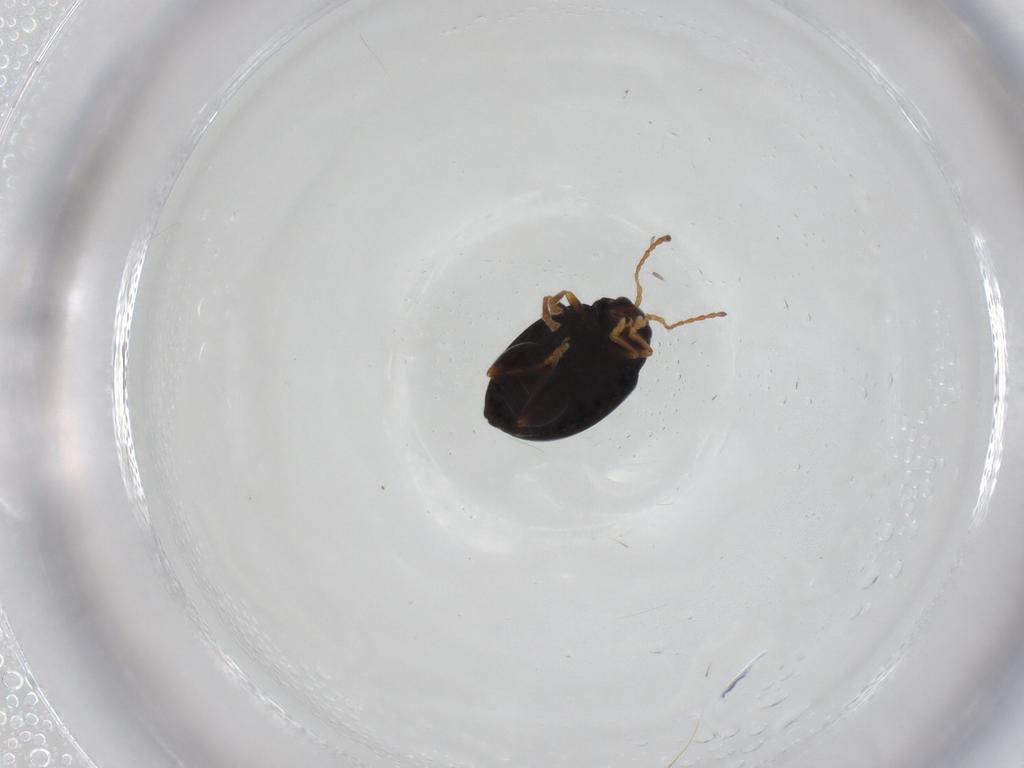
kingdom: Animalia
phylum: Arthropoda
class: Insecta
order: Coleoptera
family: Chrysomelidae
